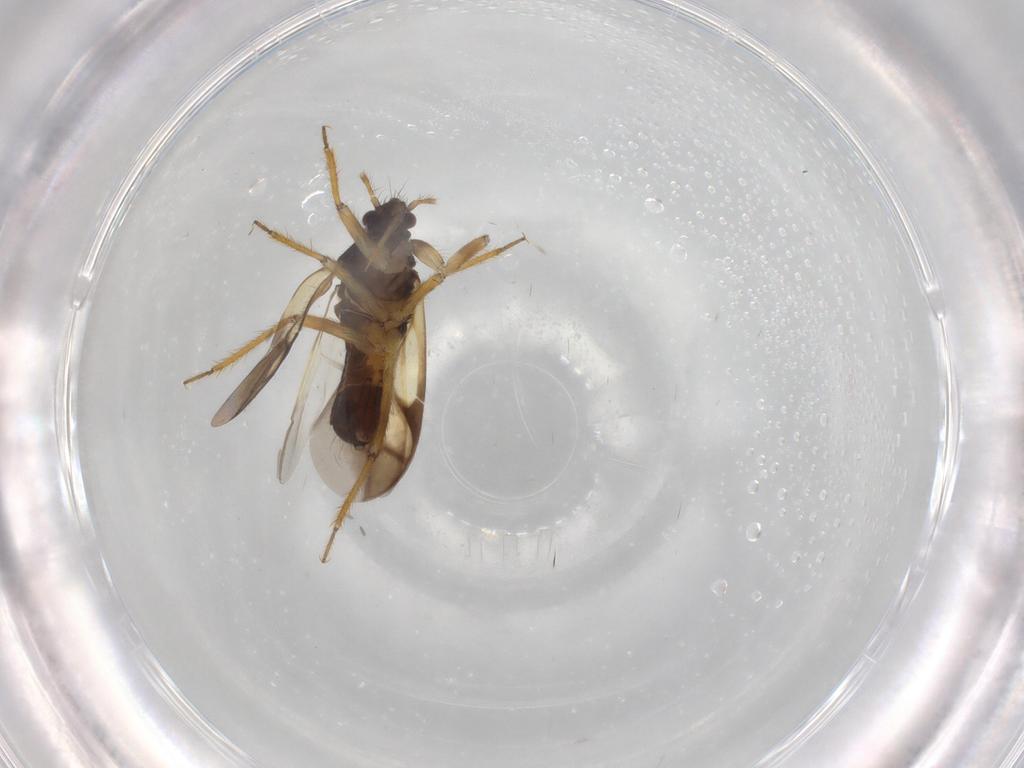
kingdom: Animalia
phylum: Arthropoda
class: Insecta
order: Hemiptera
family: Ceratocombidae
